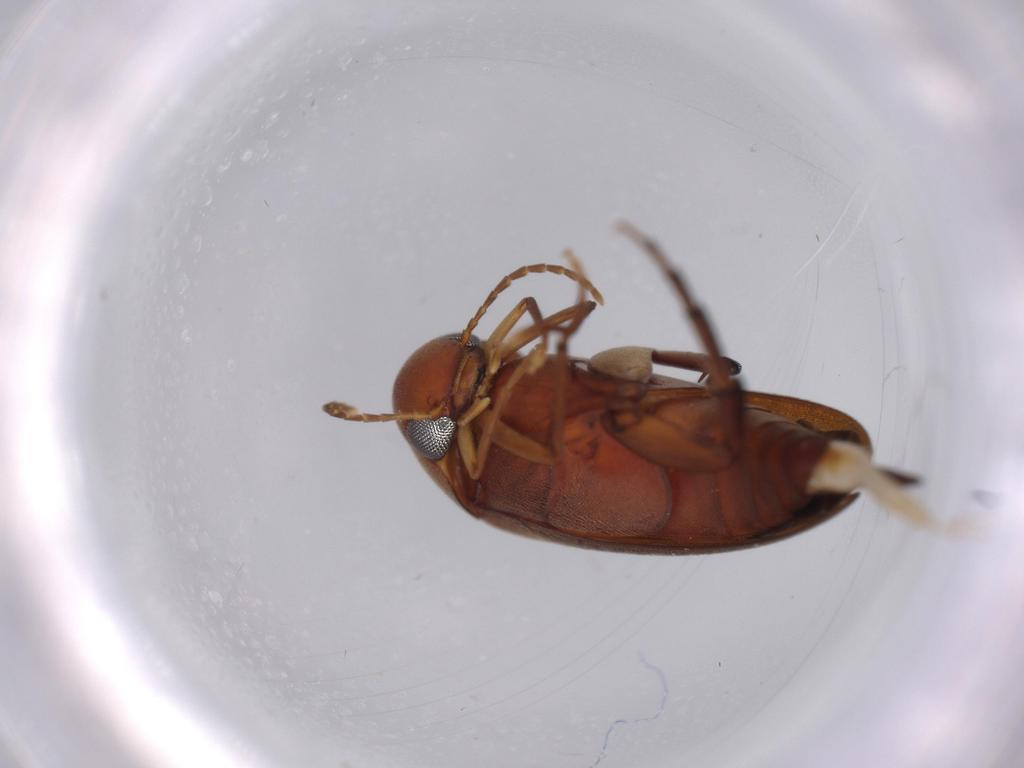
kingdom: Animalia
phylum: Arthropoda
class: Insecta
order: Coleoptera
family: Mordellidae
